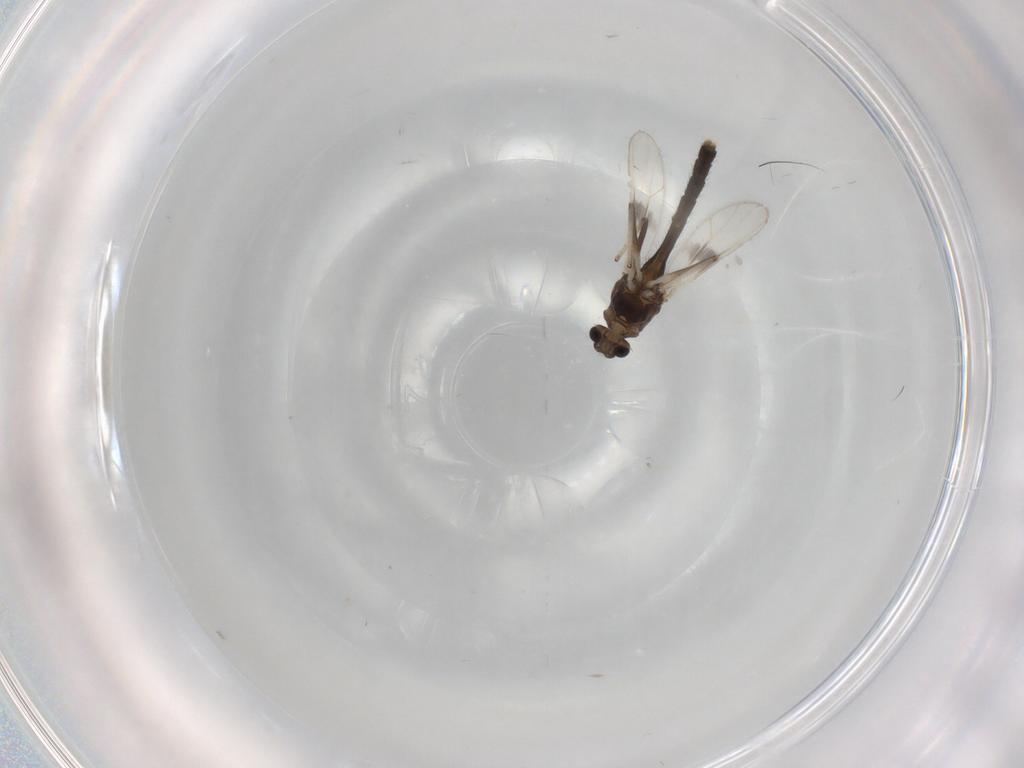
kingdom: Animalia
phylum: Arthropoda
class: Insecta
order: Diptera
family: Chironomidae
